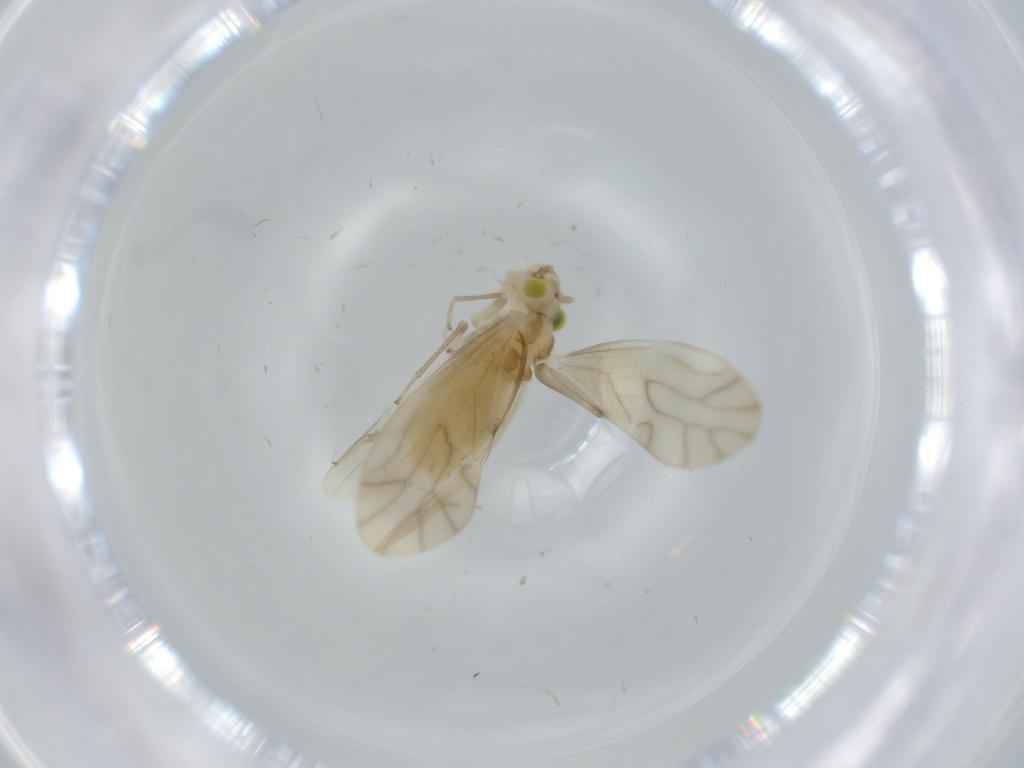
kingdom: Animalia
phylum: Arthropoda
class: Insecta
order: Psocodea
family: Caeciliusidae
